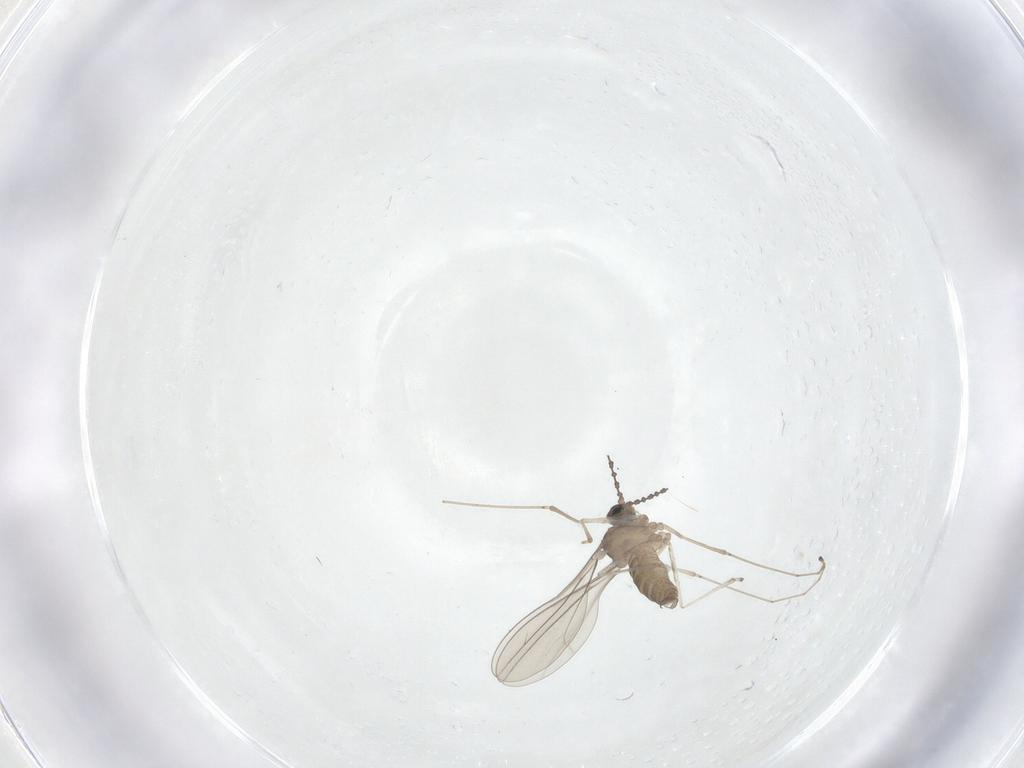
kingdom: Animalia
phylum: Arthropoda
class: Insecta
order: Diptera
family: Cecidomyiidae
